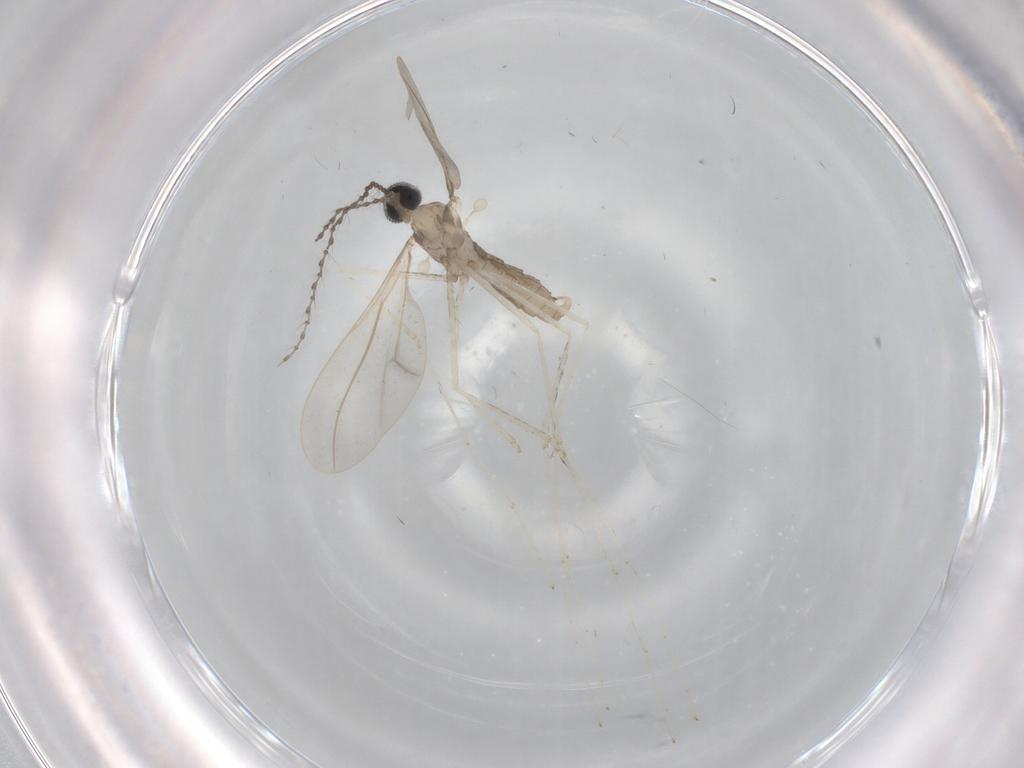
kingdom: Animalia
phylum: Arthropoda
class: Insecta
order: Diptera
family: Cecidomyiidae
